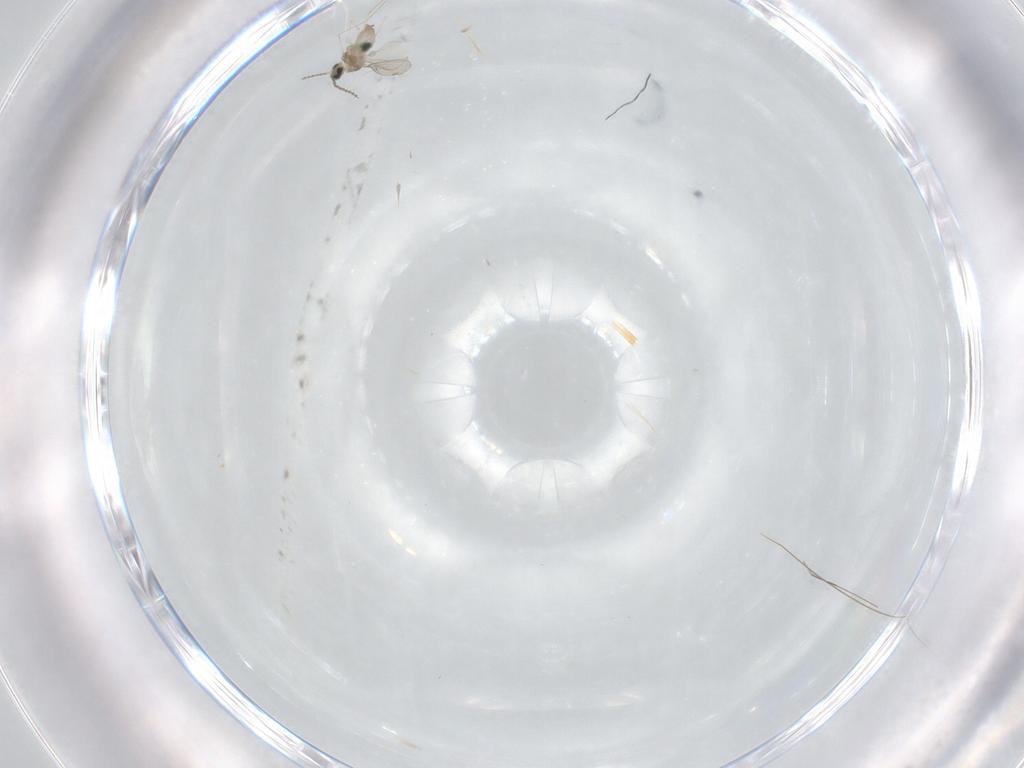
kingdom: Animalia
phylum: Arthropoda
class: Insecta
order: Diptera
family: Cecidomyiidae
